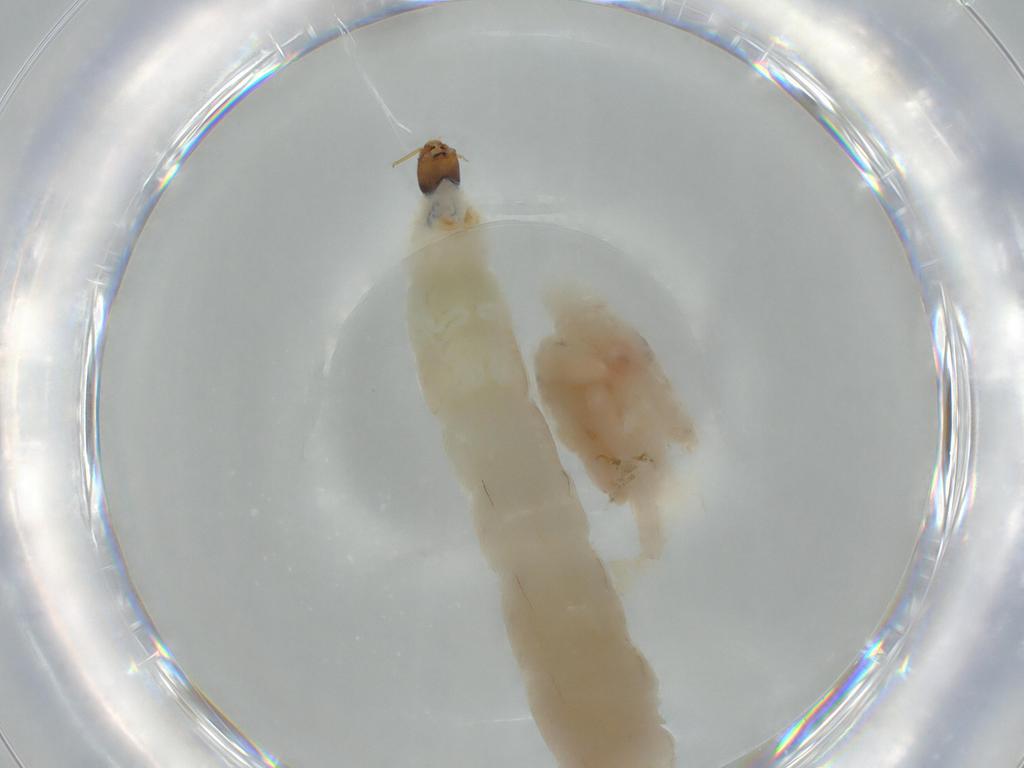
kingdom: Animalia
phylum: Arthropoda
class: Insecta
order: Diptera
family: Chironomidae
